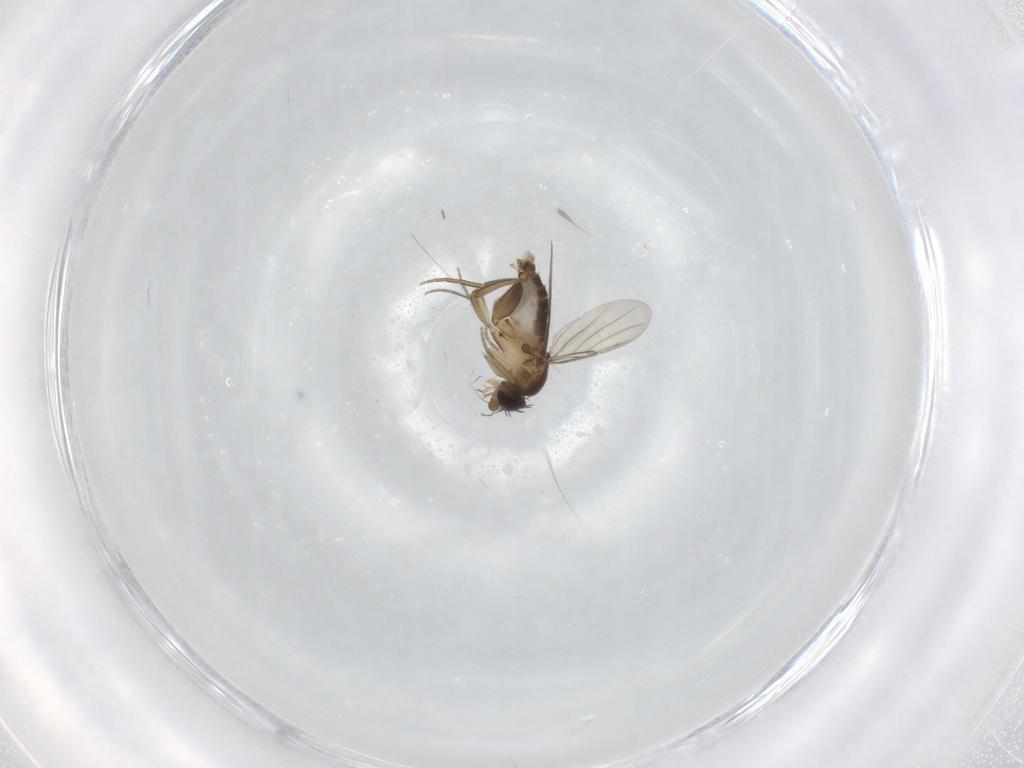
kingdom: Animalia
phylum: Arthropoda
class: Insecta
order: Diptera
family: Phoridae
